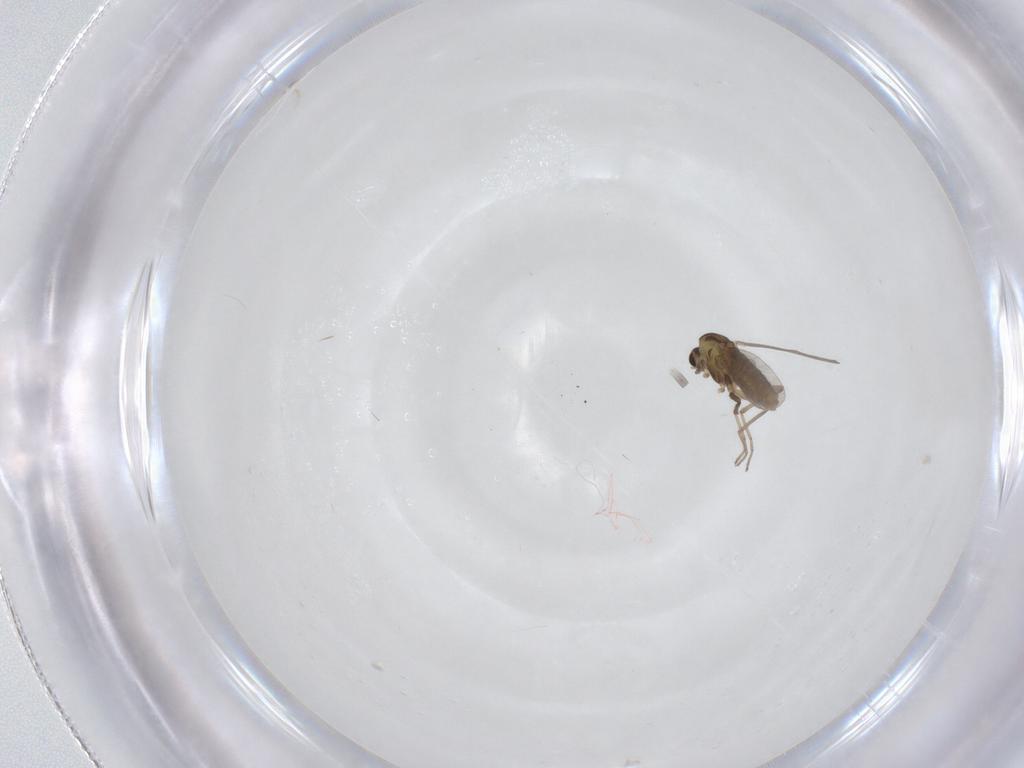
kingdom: Animalia
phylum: Arthropoda
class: Insecta
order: Diptera
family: Chironomidae
